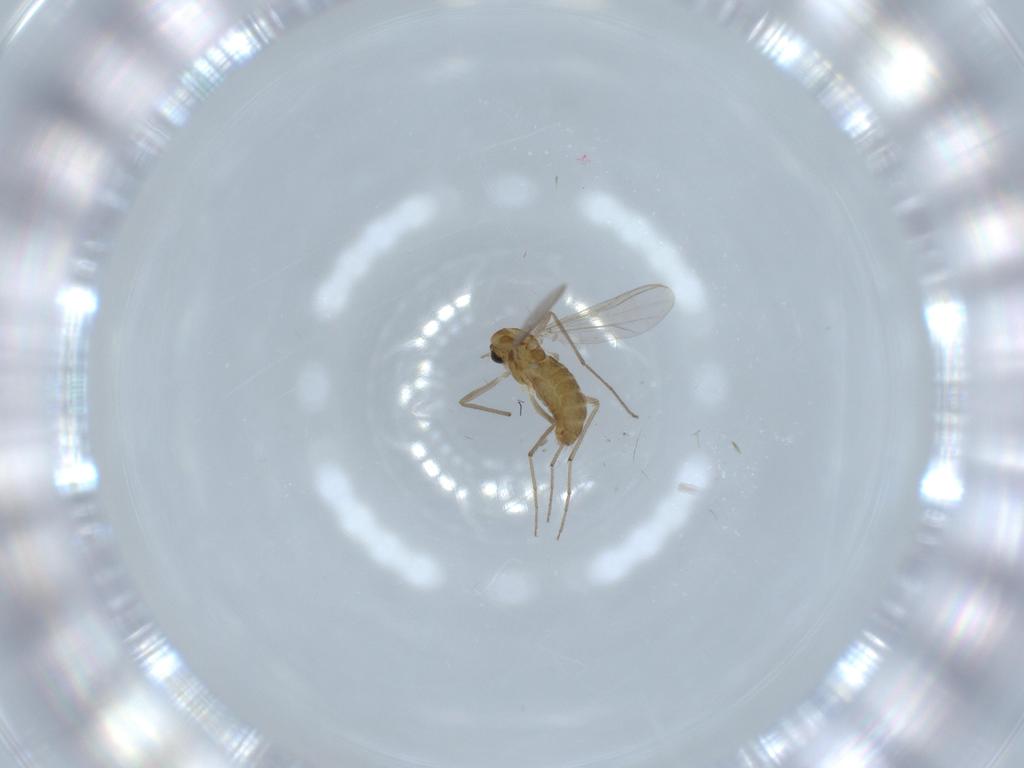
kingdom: Animalia
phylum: Arthropoda
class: Insecta
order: Diptera
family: Chironomidae
